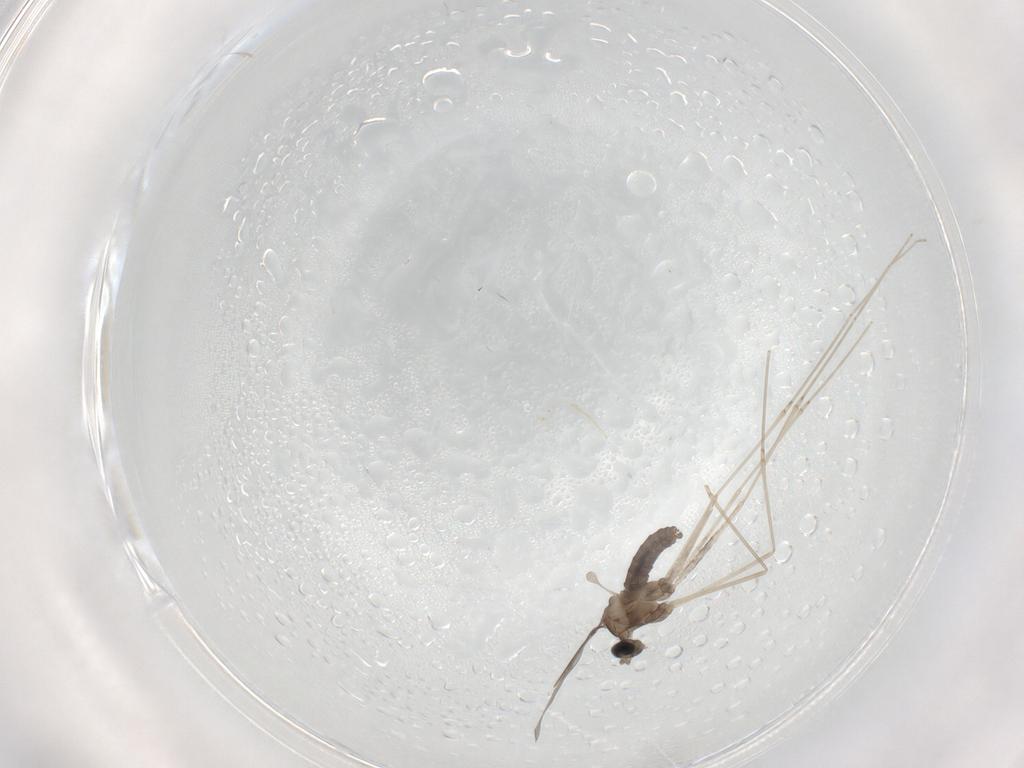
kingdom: Animalia
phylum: Arthropoda
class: Insecta
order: Diptera
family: Cecidomyiidae
